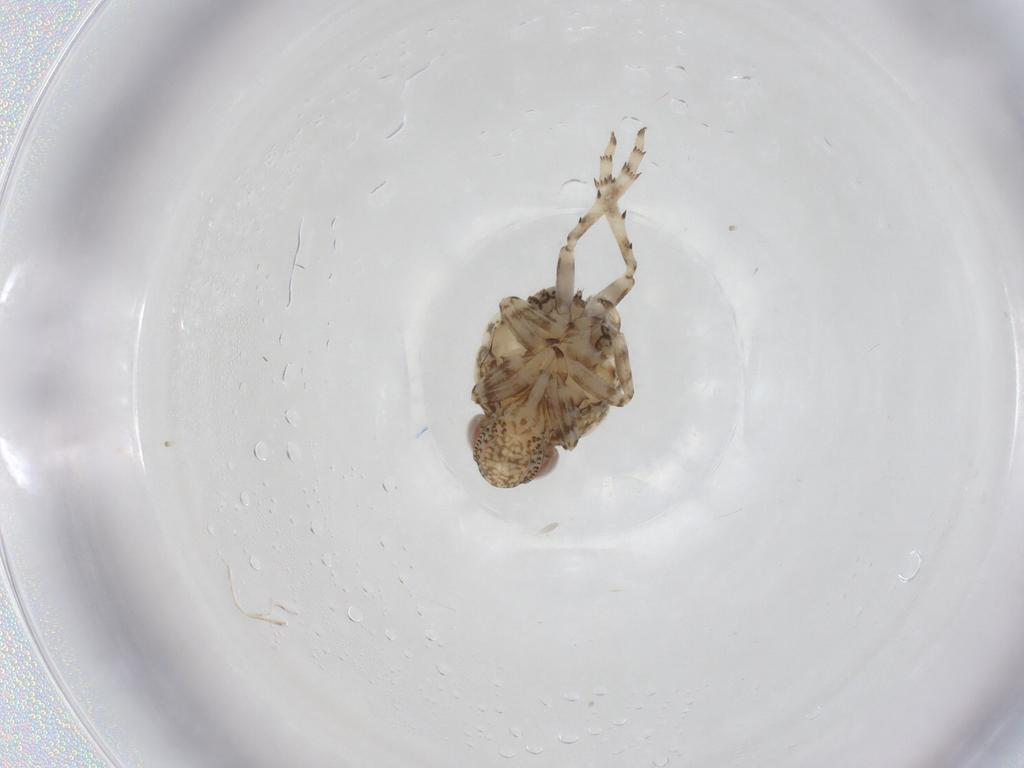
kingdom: Animalia
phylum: Arthropoda
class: Insecta
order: Hemiptera
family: Issidae
